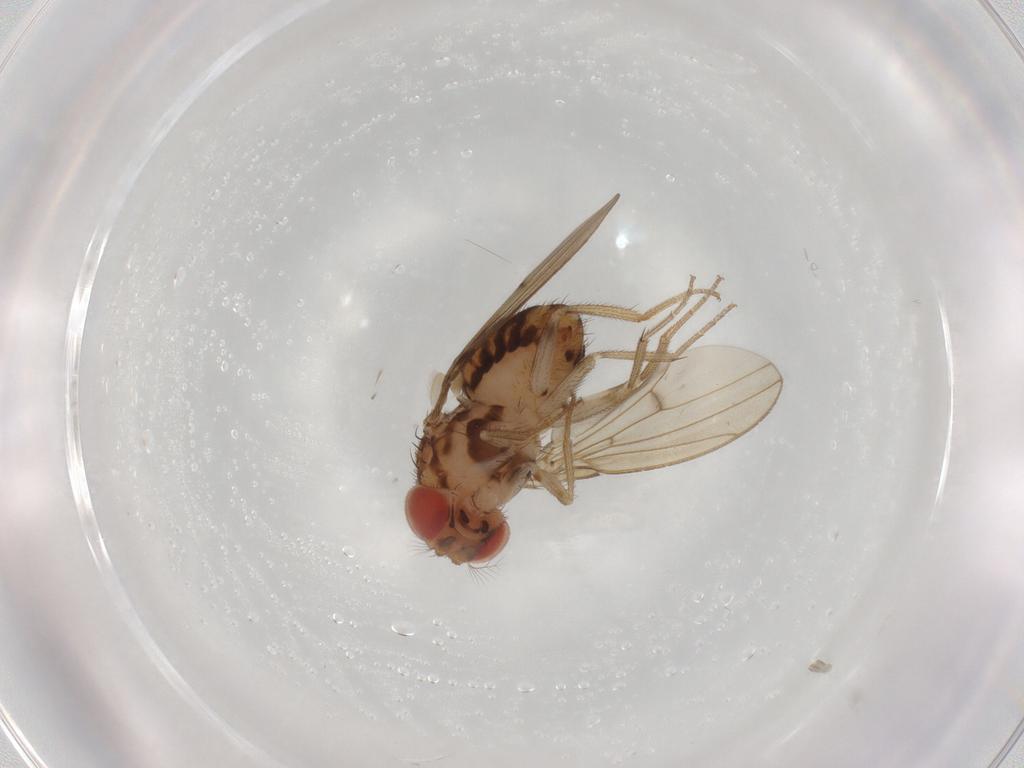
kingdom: Animalia
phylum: Arthropoda
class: Insecta
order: Diptera
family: Drosophilidae
